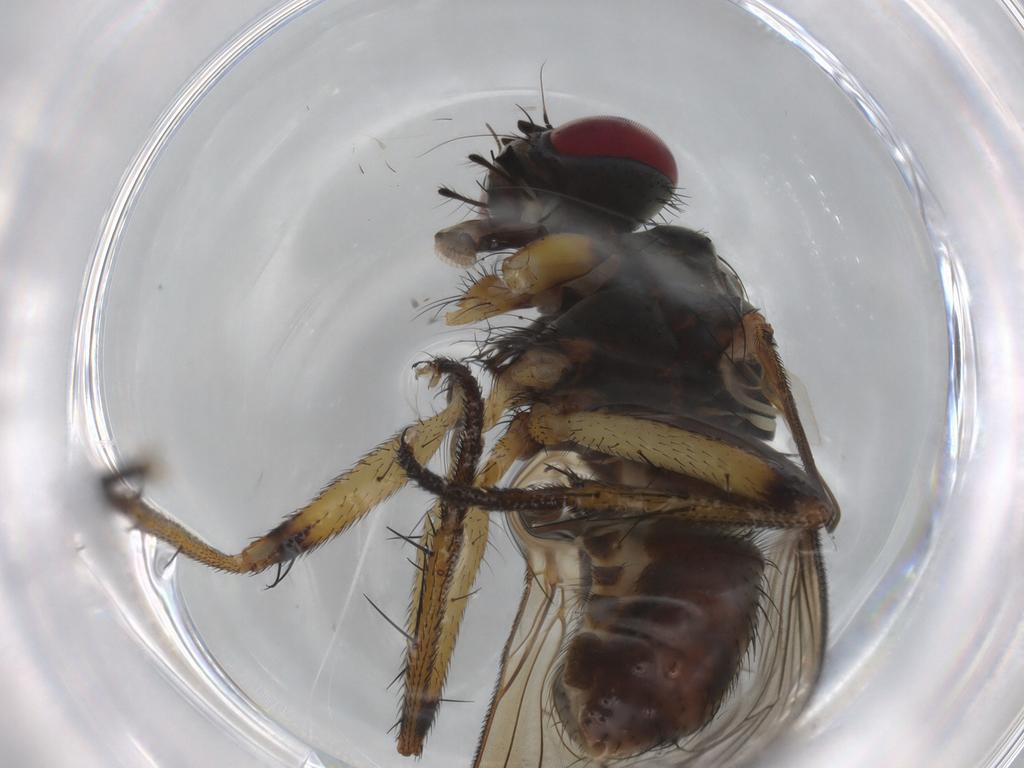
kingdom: Animalia
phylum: Arthropoda
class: Insecta
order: Diptera
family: Muscidae
